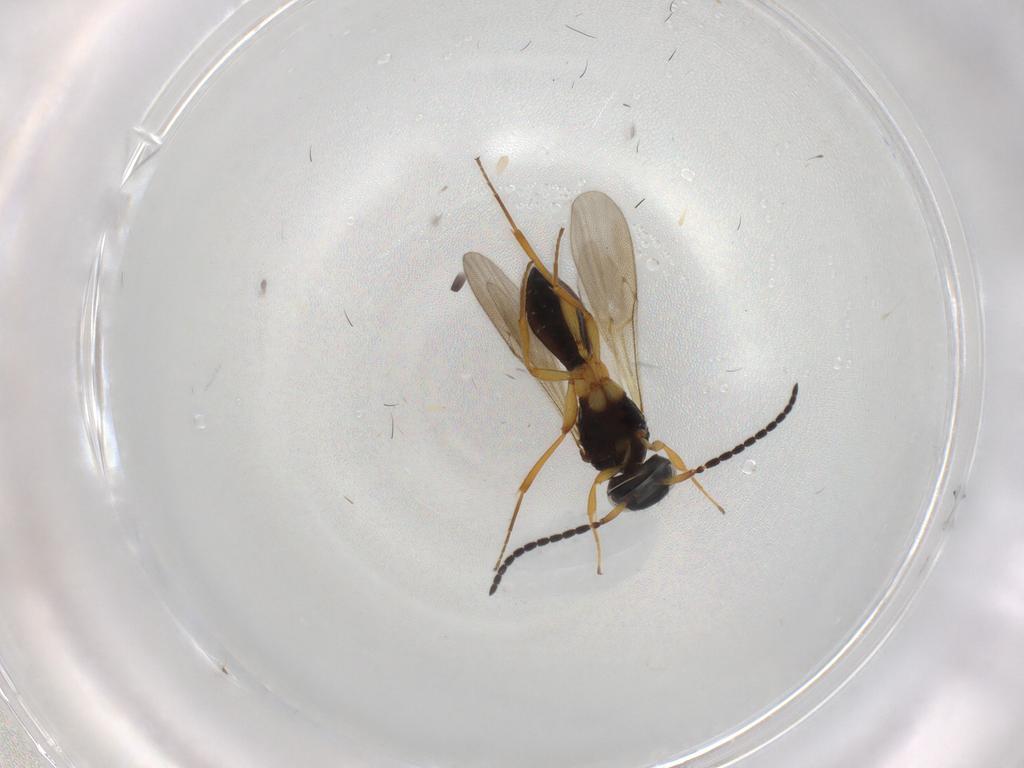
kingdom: Animalia
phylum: Arthropoda
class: Insecta
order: Hymenoptera
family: Scelionidae
